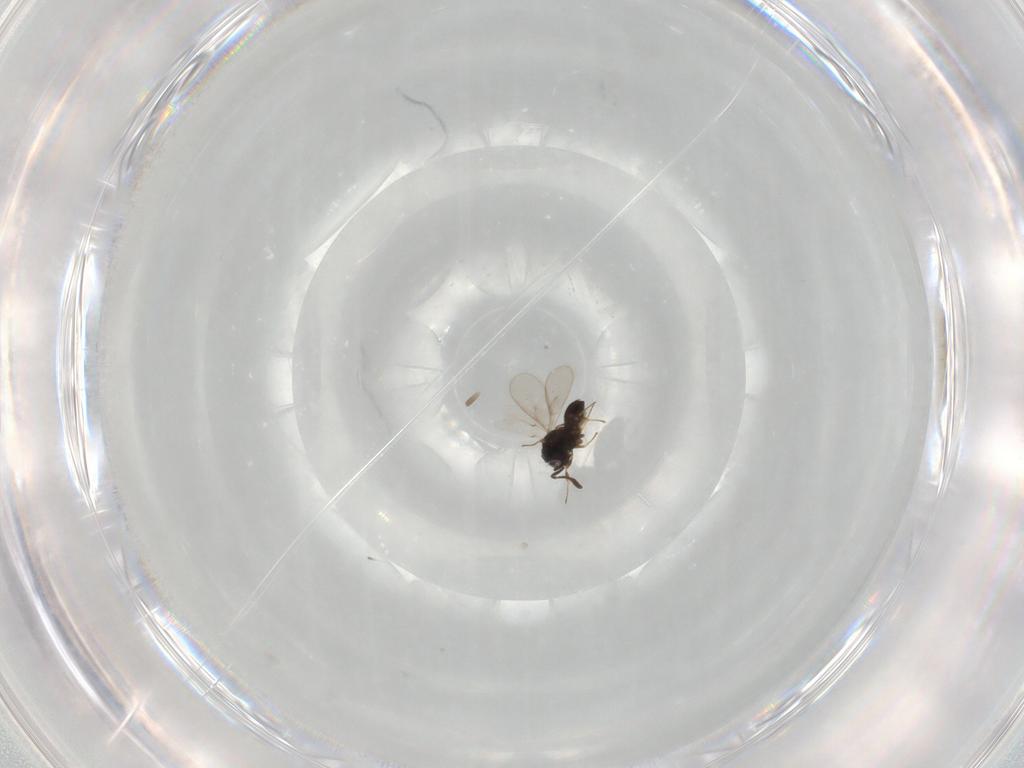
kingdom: Animalia
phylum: Arthropoda
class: Insecta
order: Hymenoptera
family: Scelionidae
